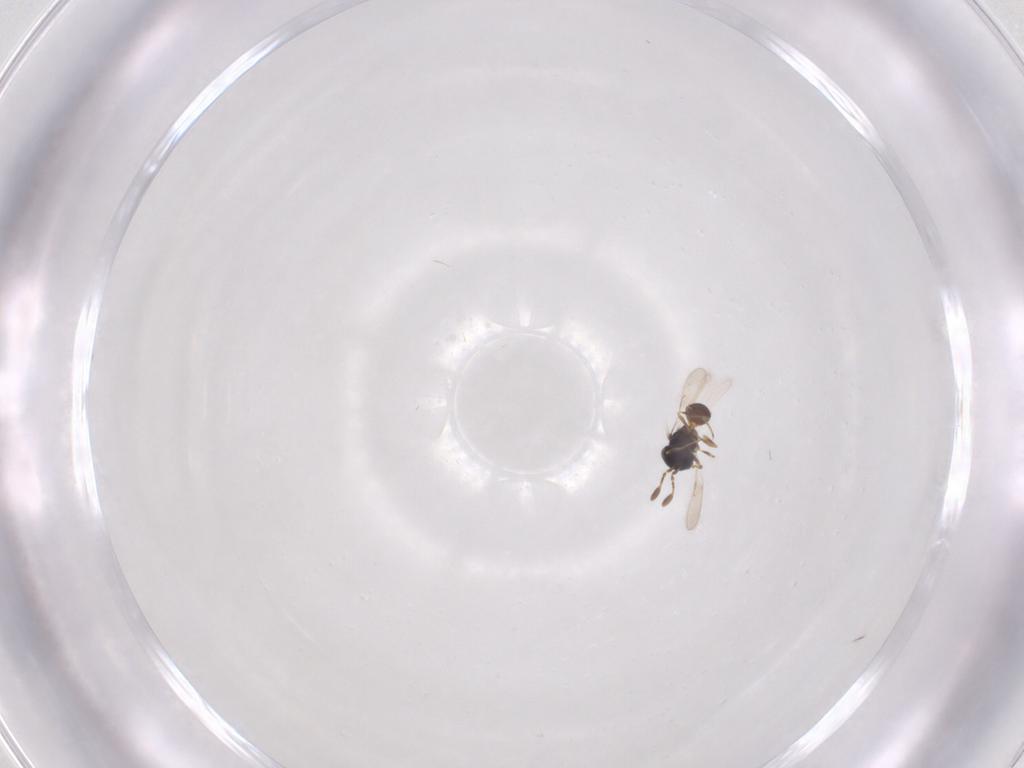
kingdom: Animalia
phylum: Arthropoda
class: Insecta
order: Hymenoptera
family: Scelionidae
